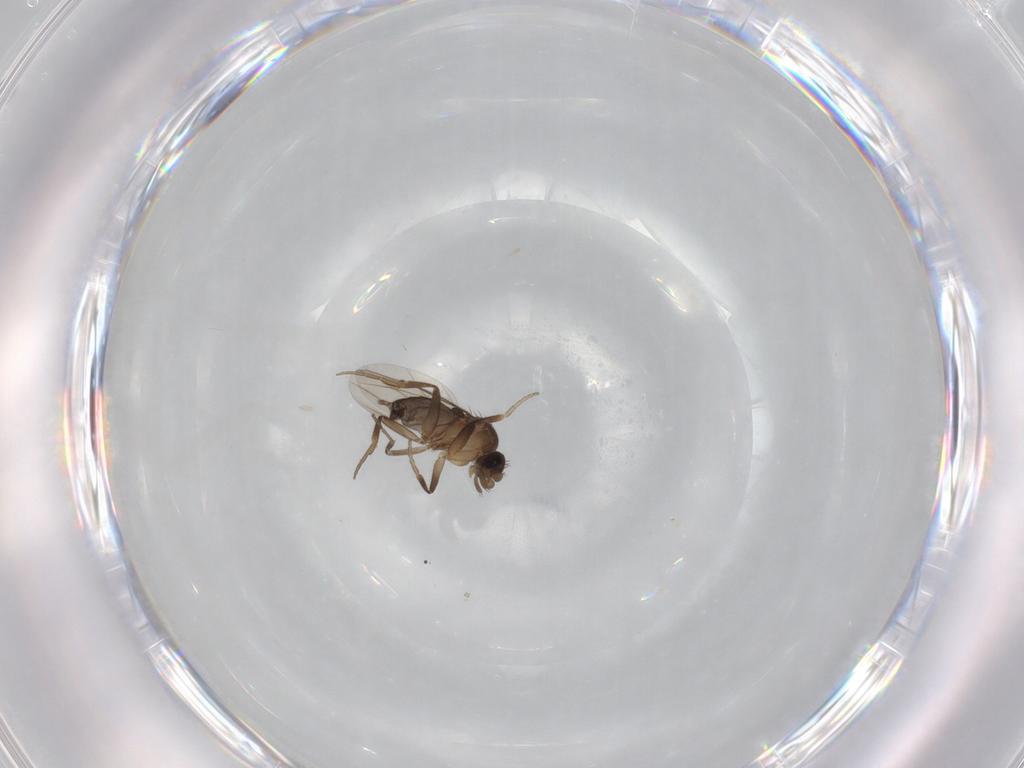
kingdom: Animalia
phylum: Arthropoda
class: Insecta
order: Diptera
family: Phoridae
